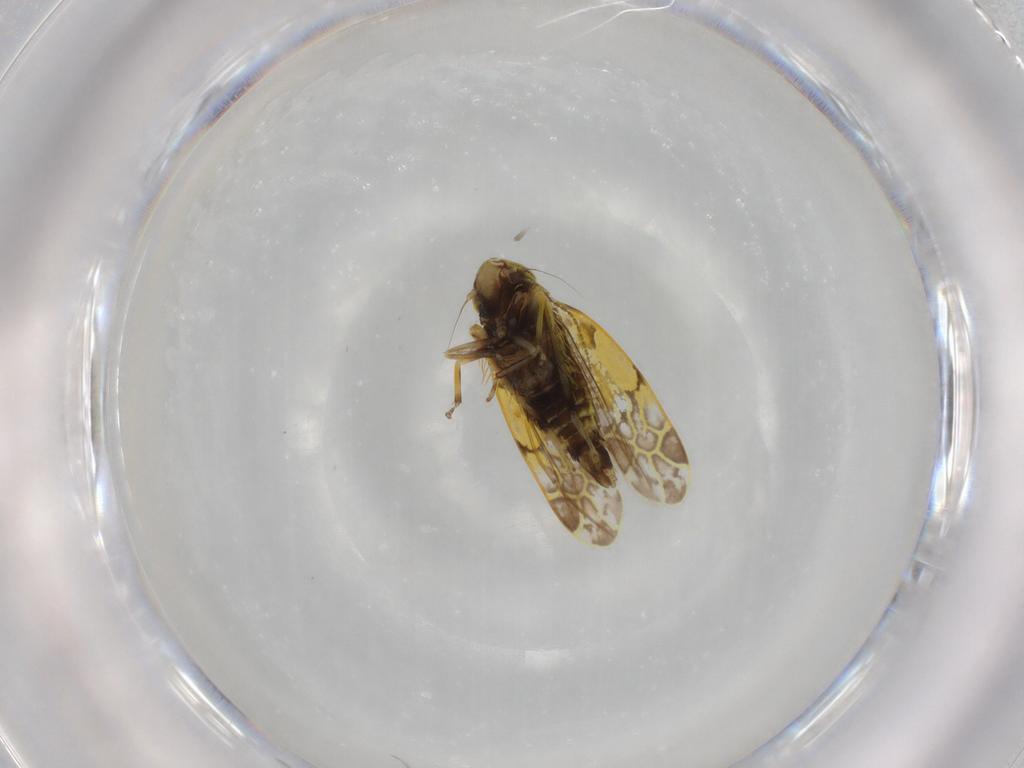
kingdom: Animalia
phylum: Arthropoda
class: Insecta
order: Hemiptera
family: Cicadellidae
